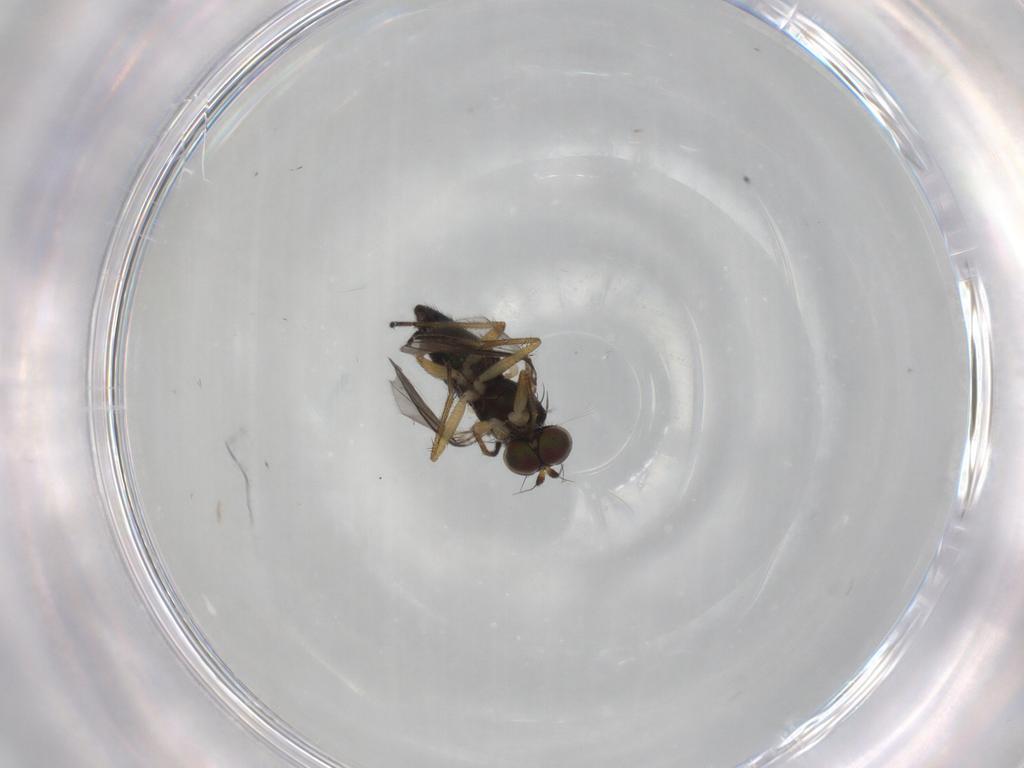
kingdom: Animalia
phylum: Arthropoda
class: Insecta
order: Diptera
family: Dolichopodidae
